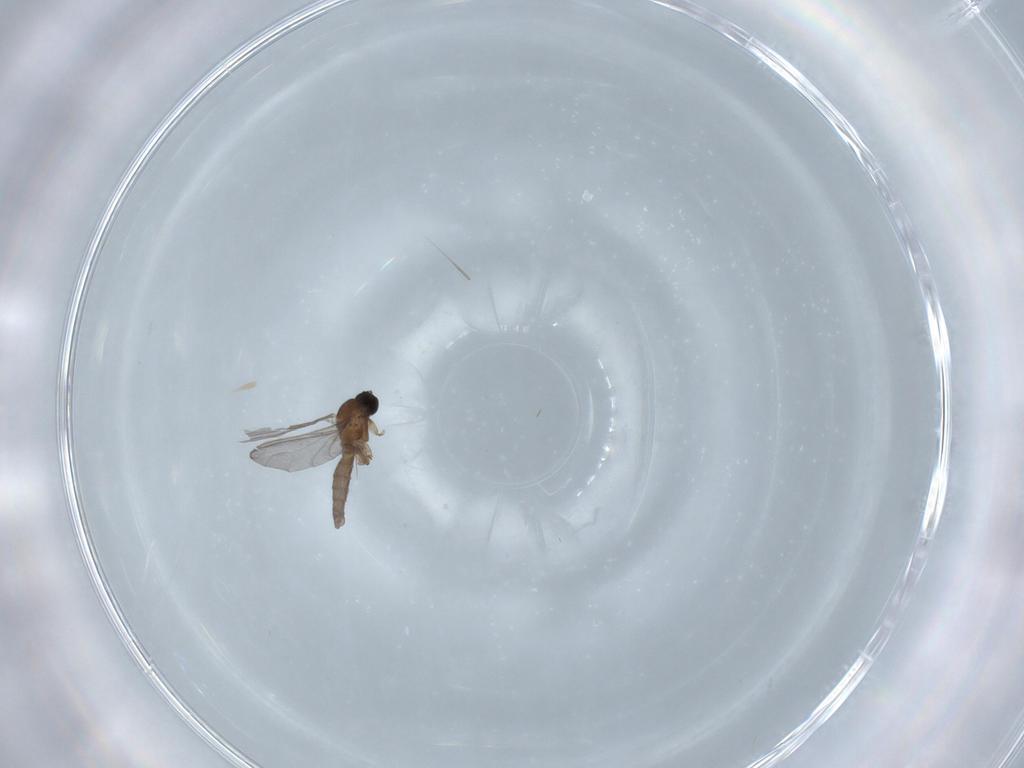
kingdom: Animalia
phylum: Arthropoda
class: Insecta
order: Diptera
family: Sciaridae
